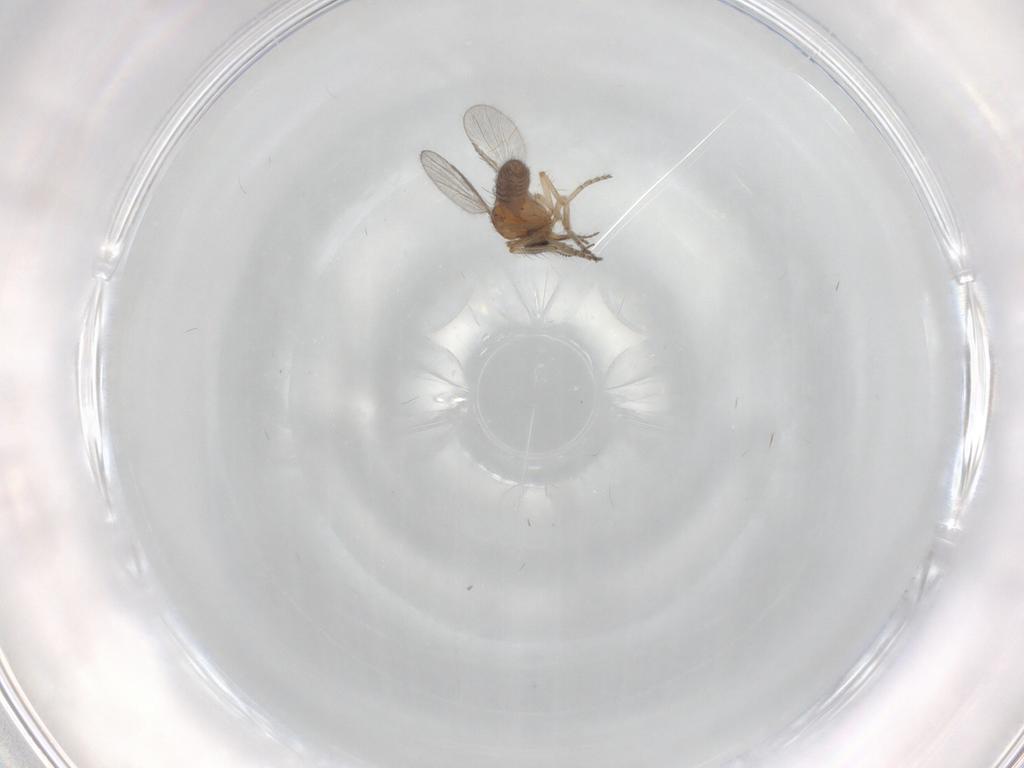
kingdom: Animalia
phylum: Arthropoda
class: Insecta
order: Diptera
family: Ceratopogonidae
